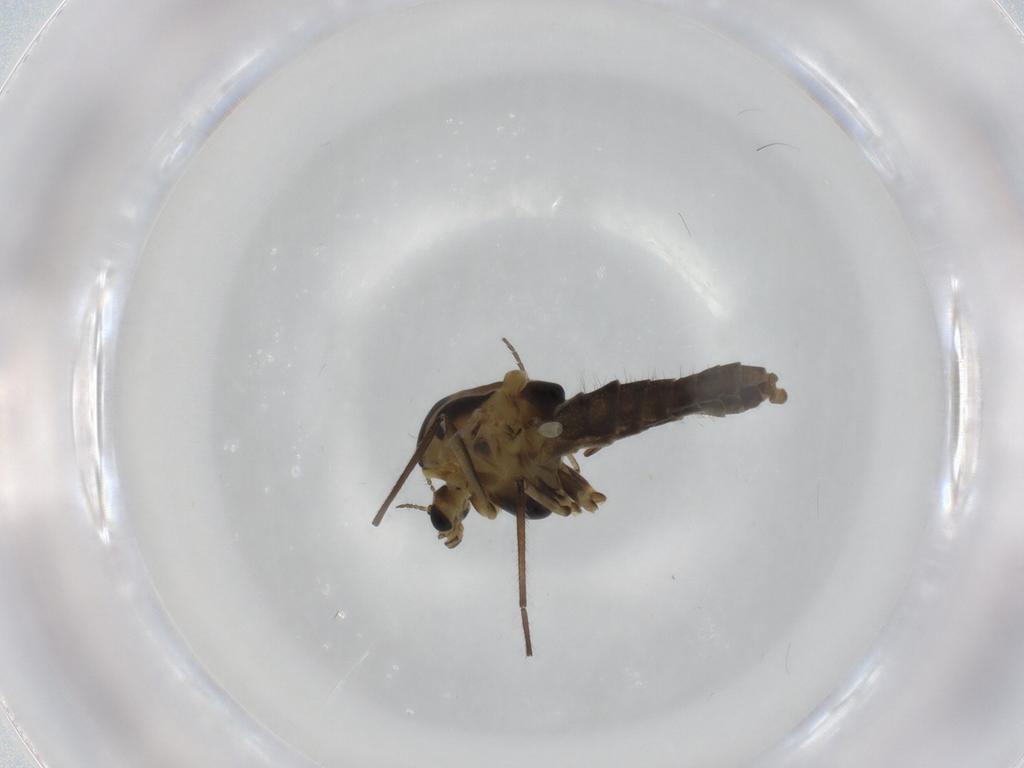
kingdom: Animalia
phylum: Arthropoda
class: Insecta
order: Diptera
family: Sciaridae
